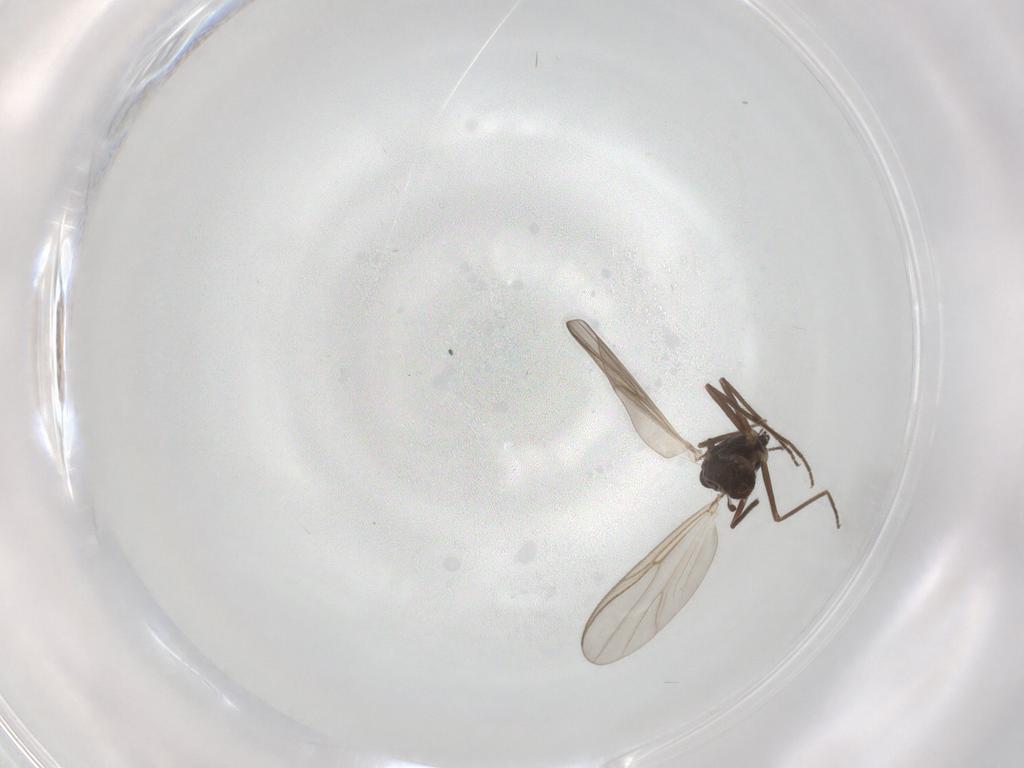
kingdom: Animalia
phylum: Arthropoda
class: Insecta
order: Diptera
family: Chironomidae
